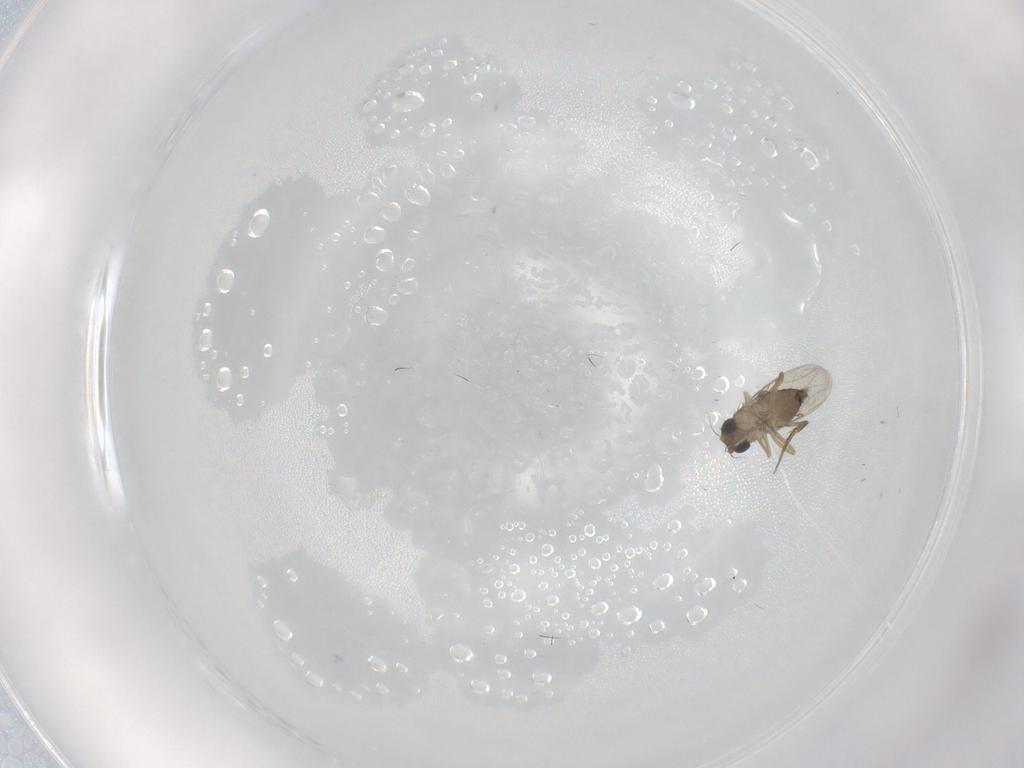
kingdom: Animalia
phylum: Arthropoda
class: Insecta
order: Diptera
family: Phoridae
